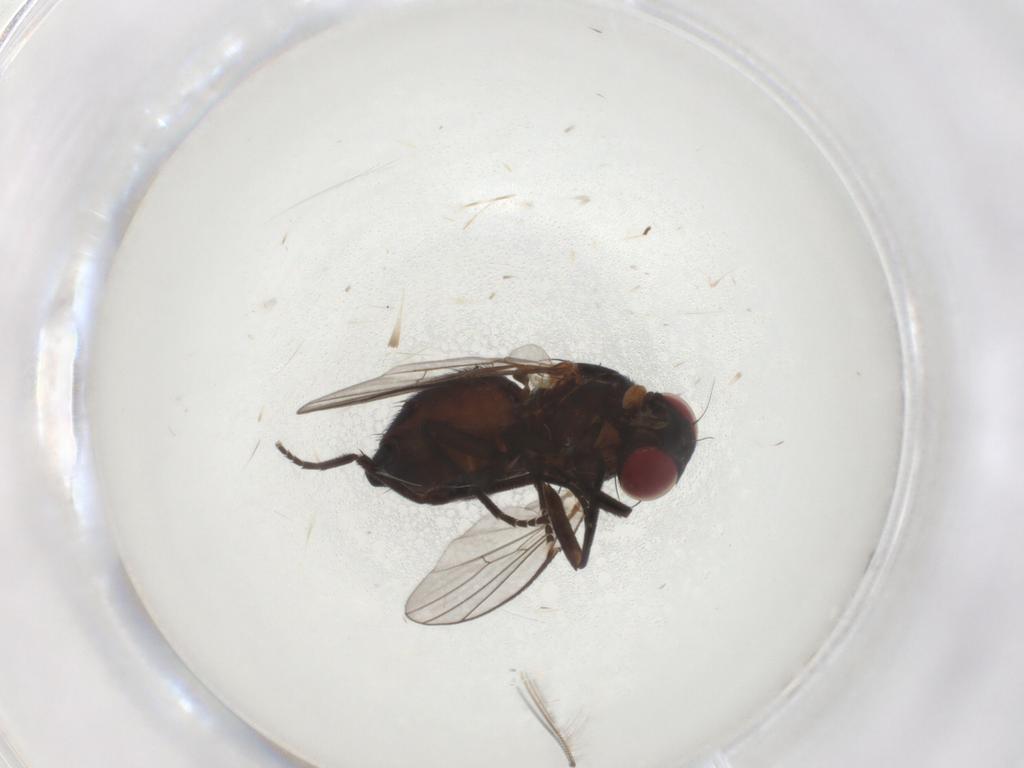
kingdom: Animalia
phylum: Arthropoda
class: Insecta
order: Diptera
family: Agromyzidae
